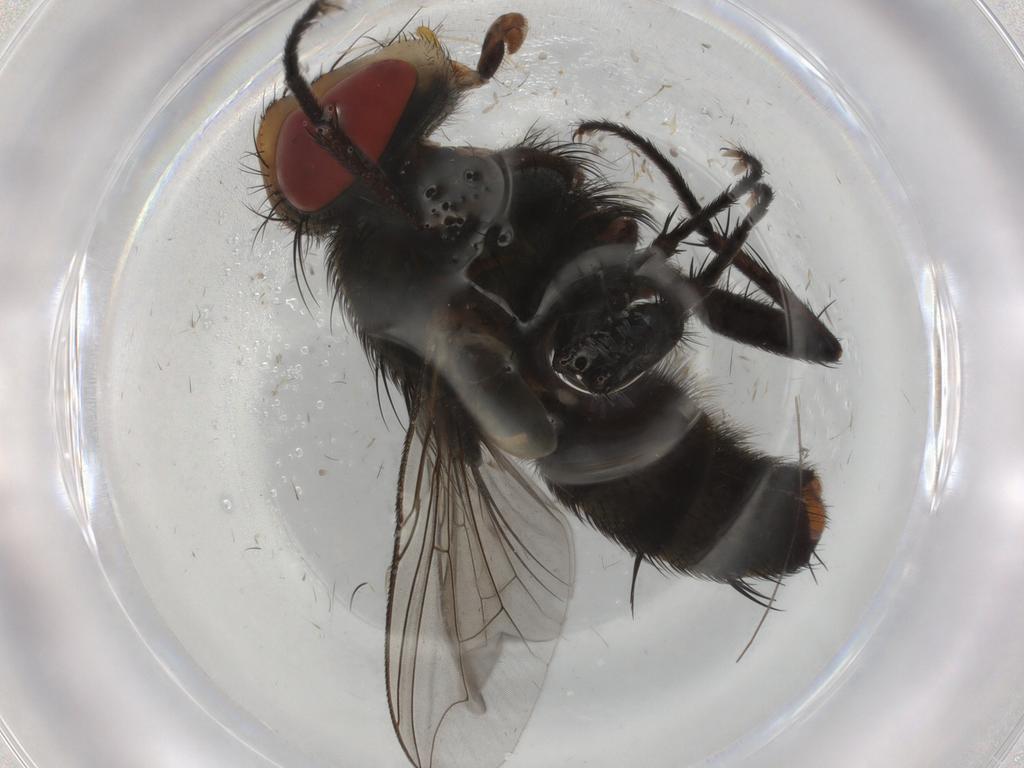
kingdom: Animalia
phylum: Arthropoda
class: Insecta
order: Diptera
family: Sarcophagidae
